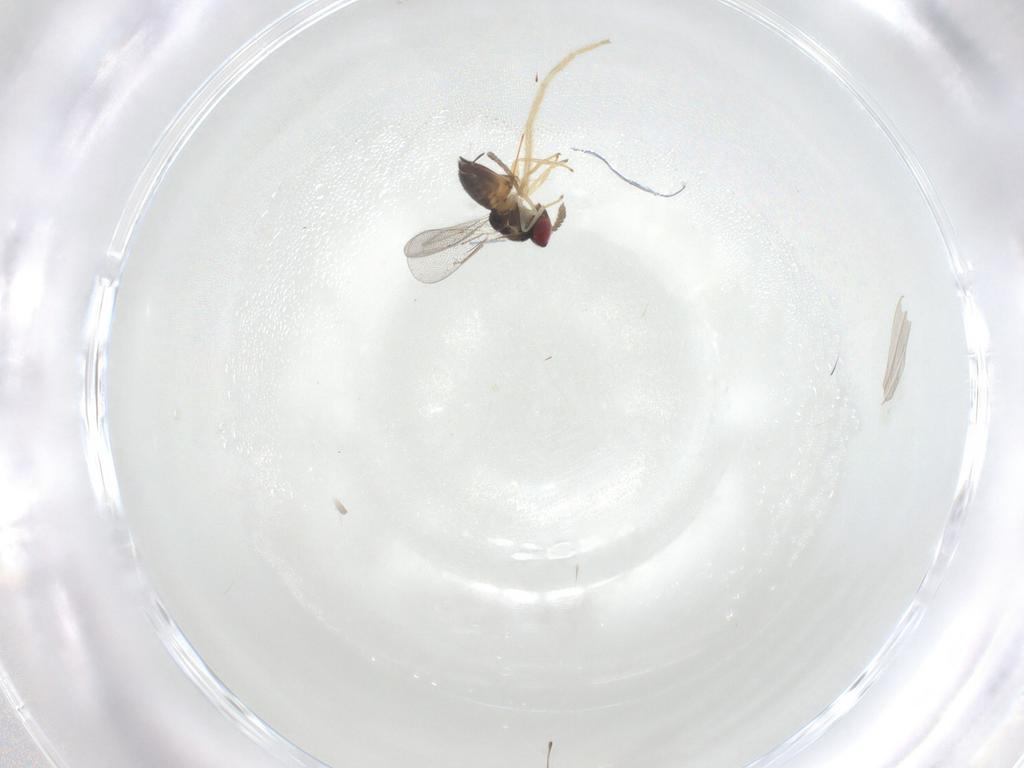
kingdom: Animalia
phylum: Arthropoda
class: Insecta
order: Hymenoptera
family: Eulophidae
